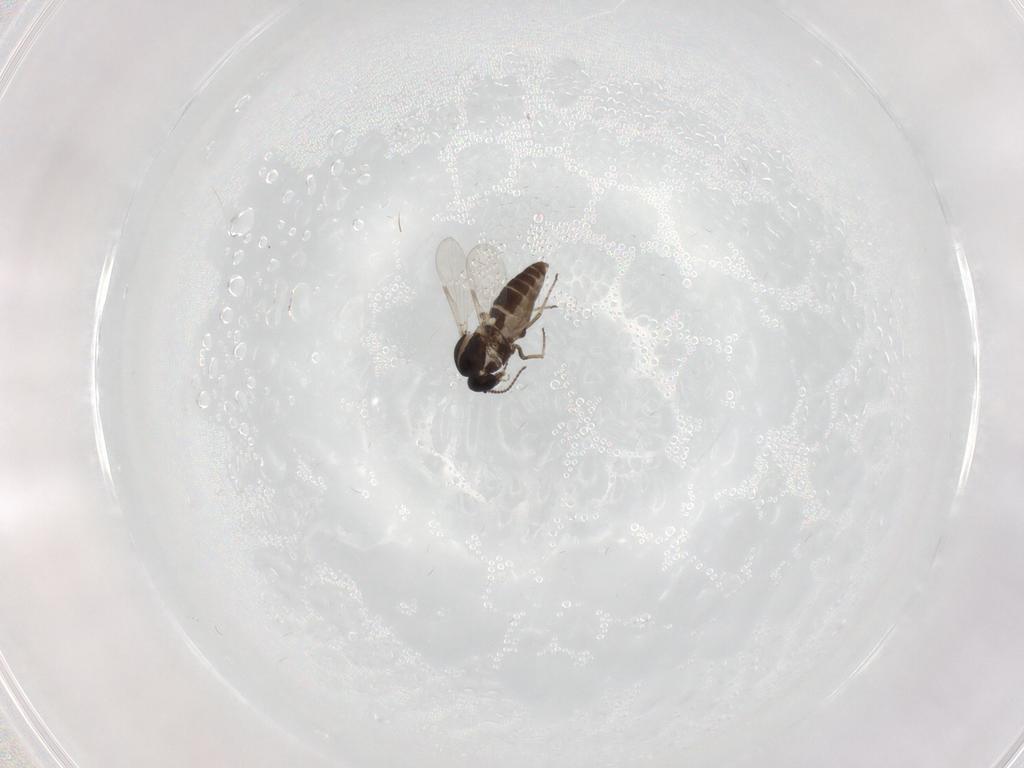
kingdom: Animalia
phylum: Arthropoda
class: Insecta
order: Diptera
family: Ceratopogonidae
